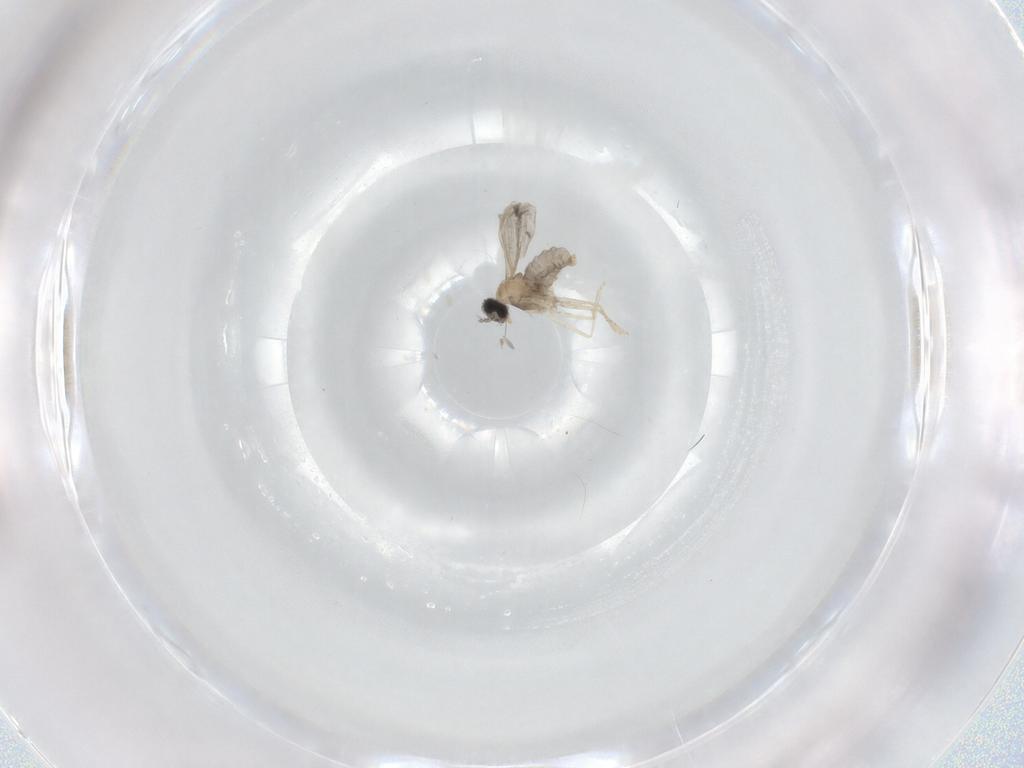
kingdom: Animalia
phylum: Arthropoda
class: Insecta
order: Diptera
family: Cecidomyiidae
